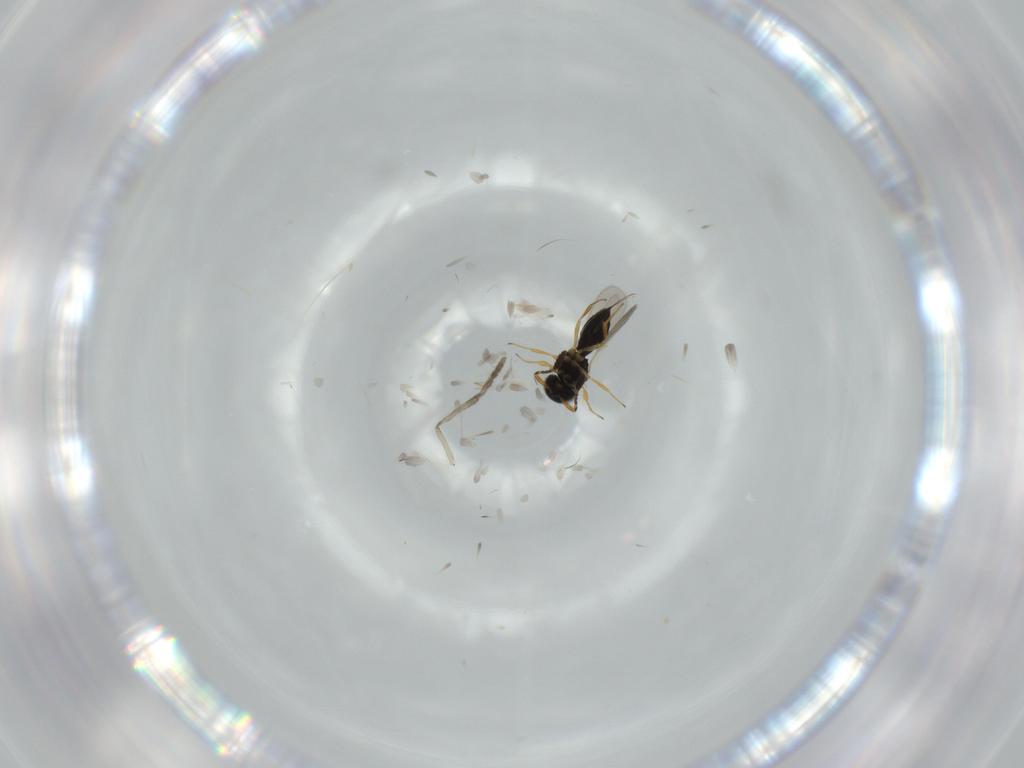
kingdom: Animalia
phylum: Arthropoda
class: Insecta
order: Hymenoptera
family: Scelionidae
